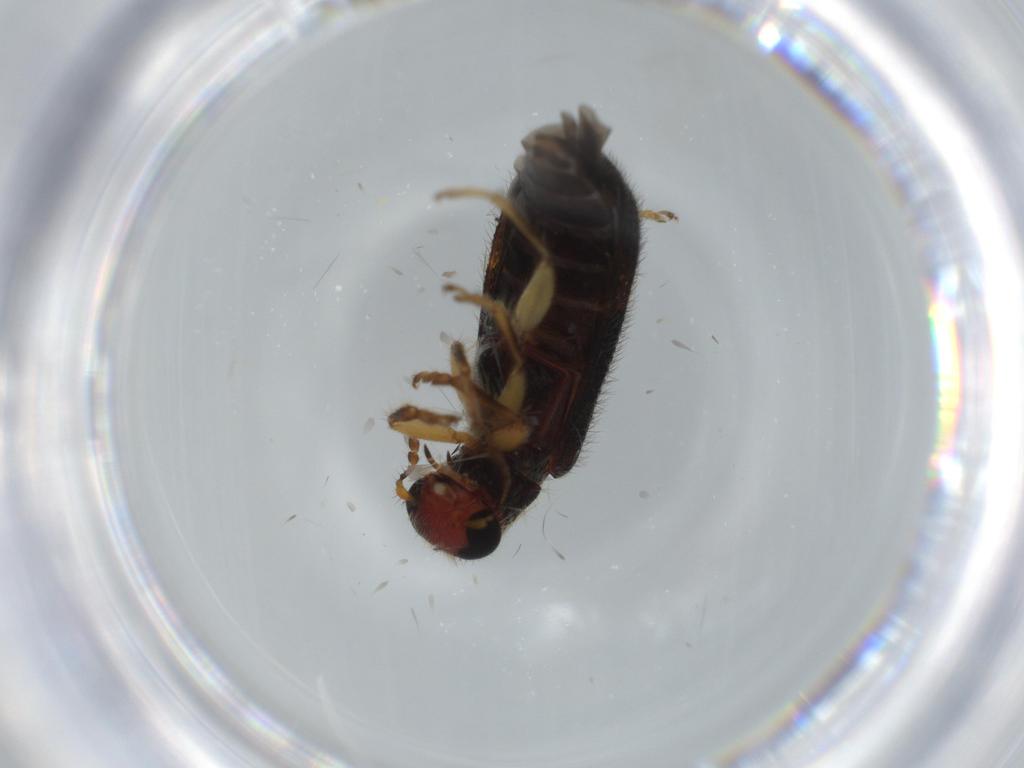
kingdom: Animalia
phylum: Arthropoda
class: Insecta
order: Coleoptera
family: Cleridae
